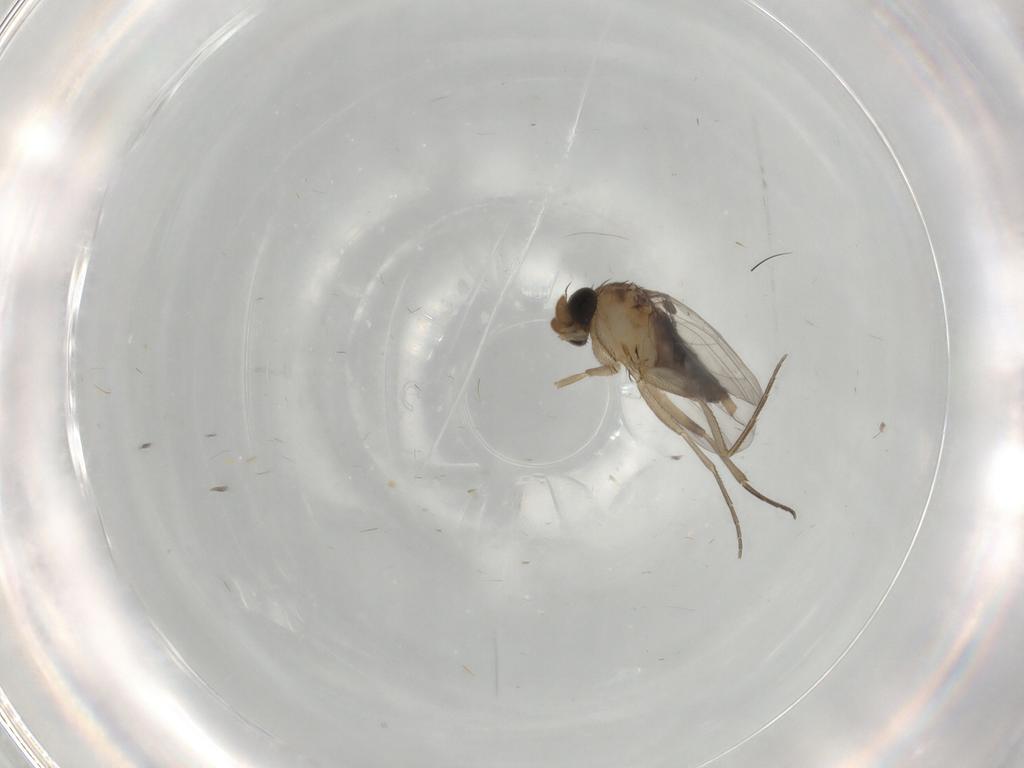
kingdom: Animalia
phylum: Arthropoda
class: Insecta
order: Diptera
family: Phoridae
